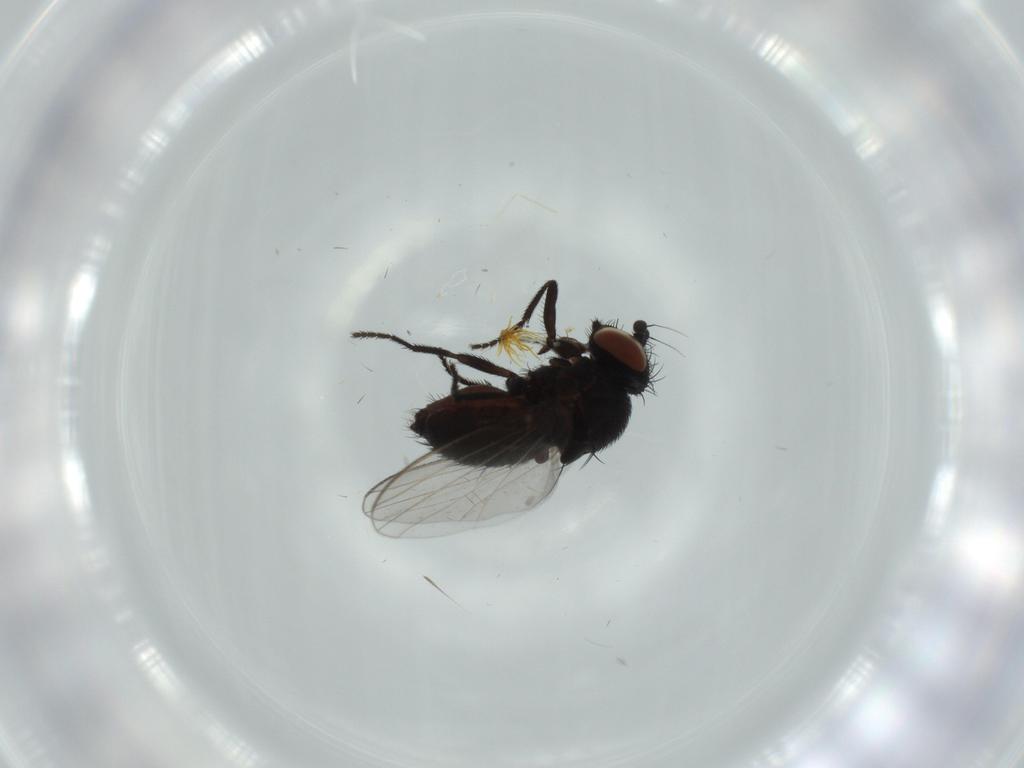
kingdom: Animalia
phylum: Arthropoda
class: Insecta
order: Diptera
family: Milichiidae
